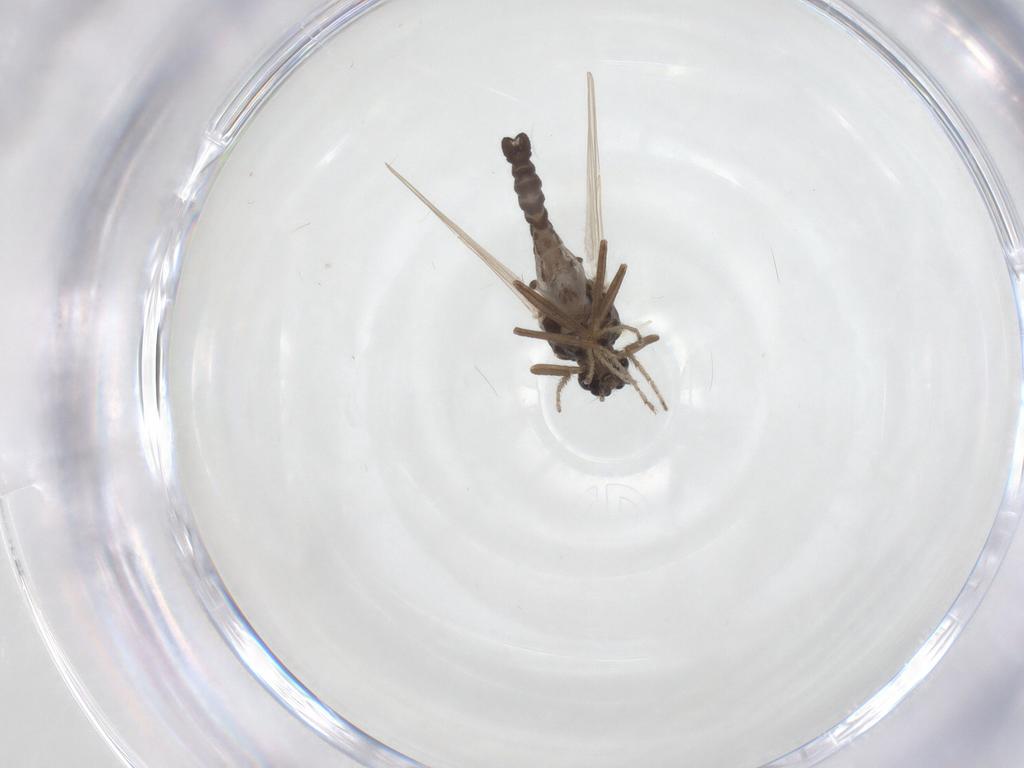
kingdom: Animalia
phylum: Arthropoda
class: Insecta
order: Diptera
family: Ceratopogonidae
